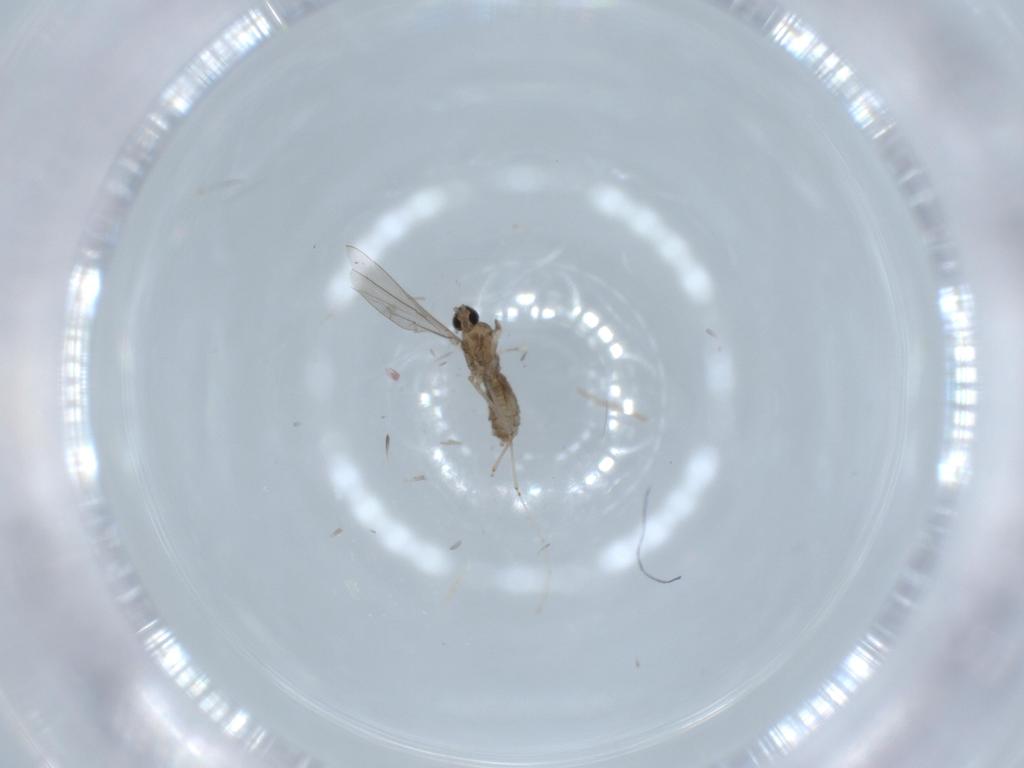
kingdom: Animalia
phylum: Arthropoda
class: Insecta
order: Diptera
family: Cecidomyiidae
